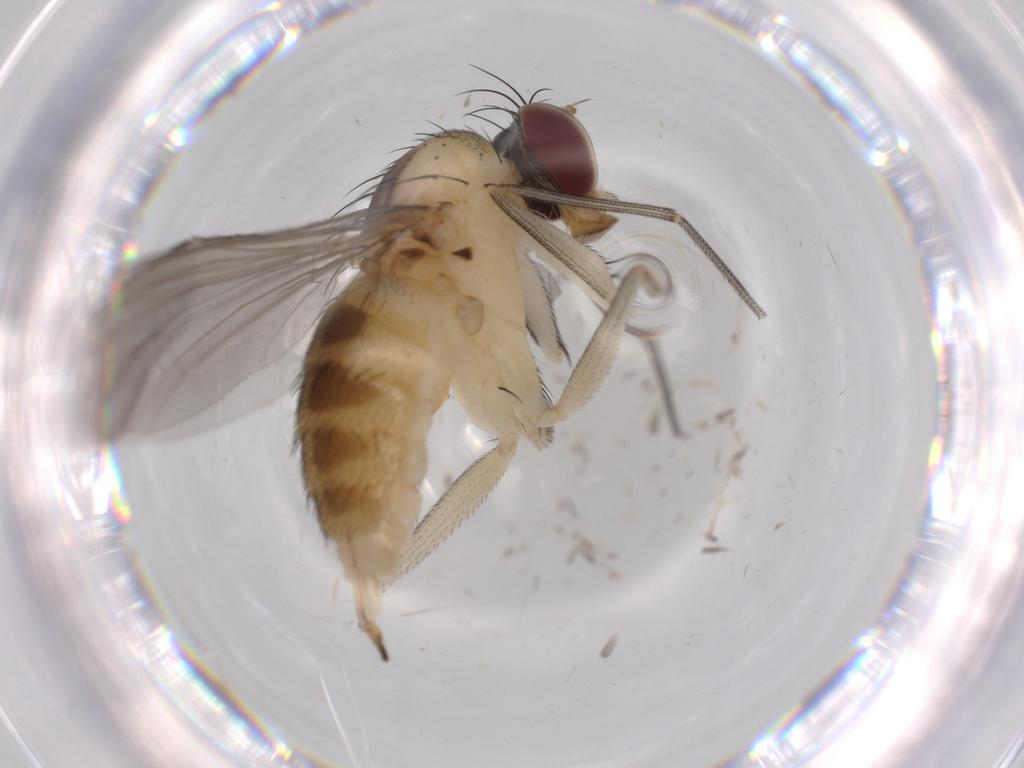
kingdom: Animalia
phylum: Arthropoda
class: Insecta
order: Diptera
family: Dolichopodidae
